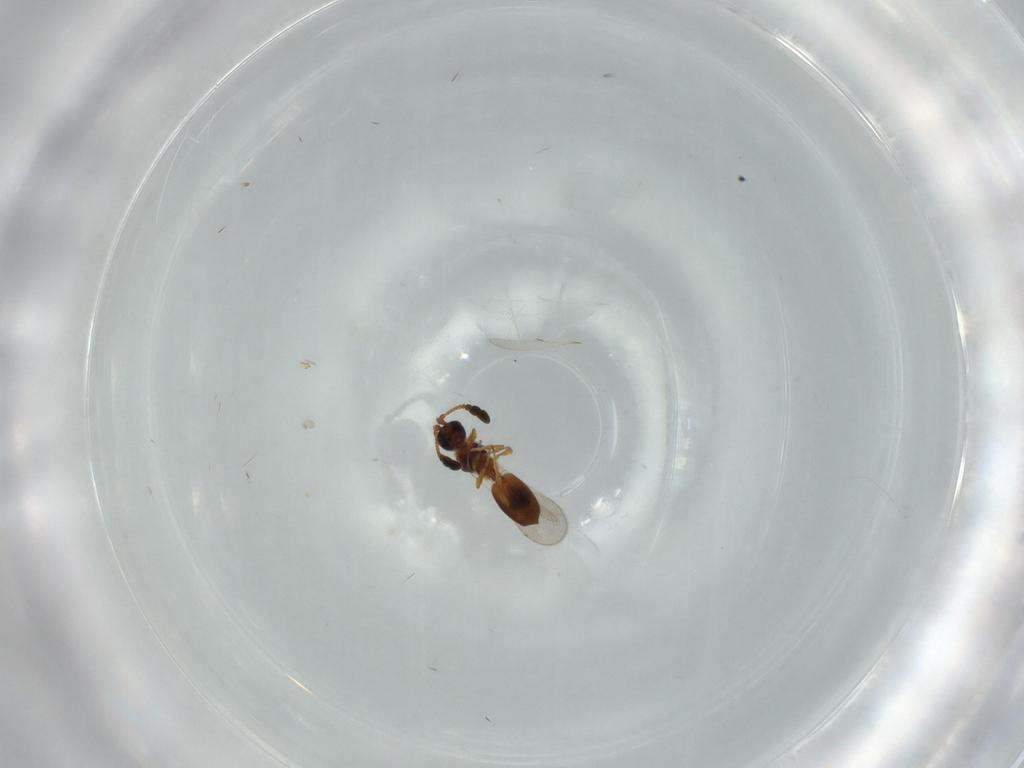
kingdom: Animalia
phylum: Arthropoda
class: Insecta
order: Hymenoptera
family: Diapriidae
